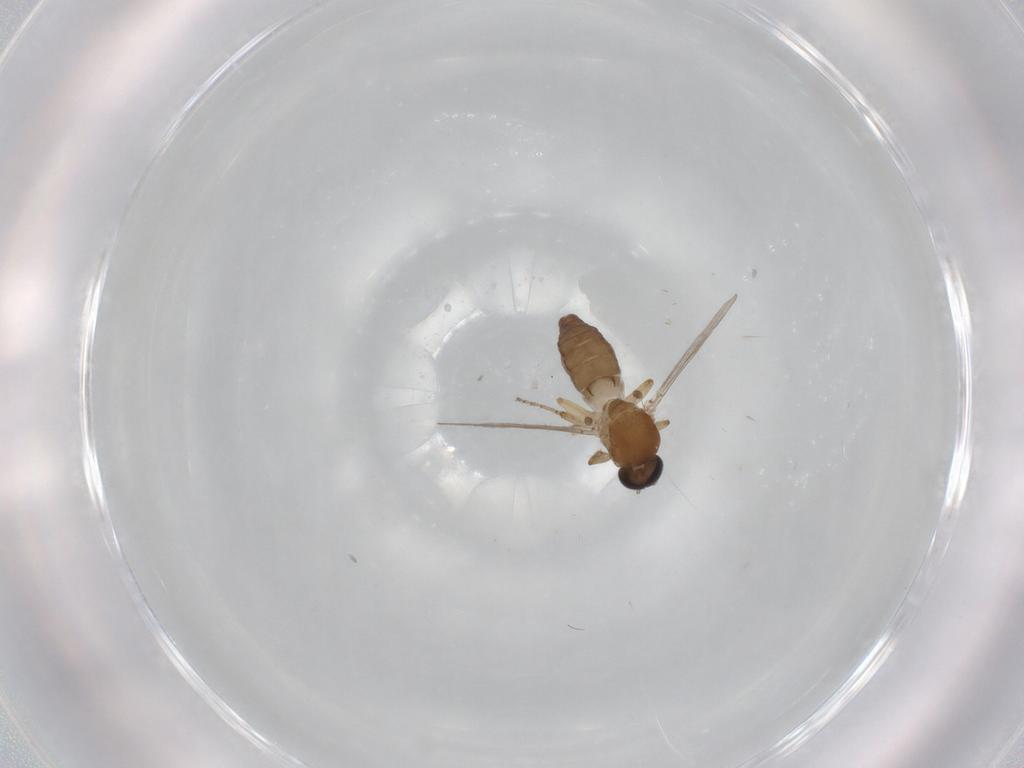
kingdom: Animalia
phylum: Arthropoda
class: Insecta
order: Diptera
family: Ceratopogonidae
